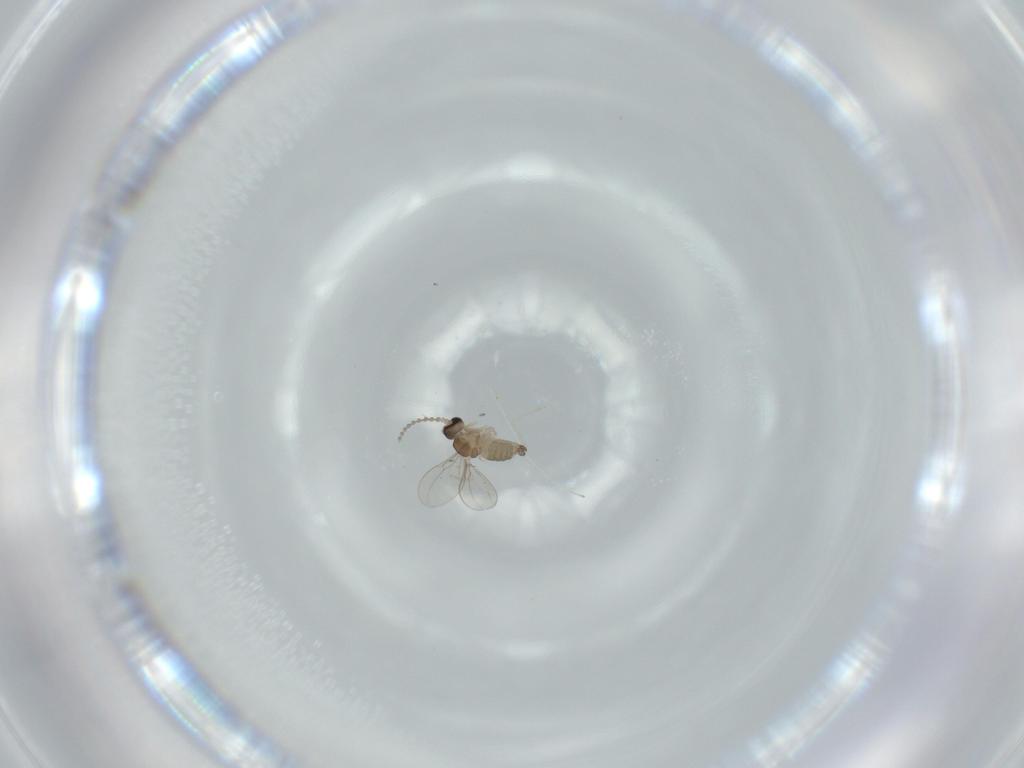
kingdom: Animalia
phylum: Arthropoda
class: Insecta
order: Diptera
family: Cecidomyiidae
